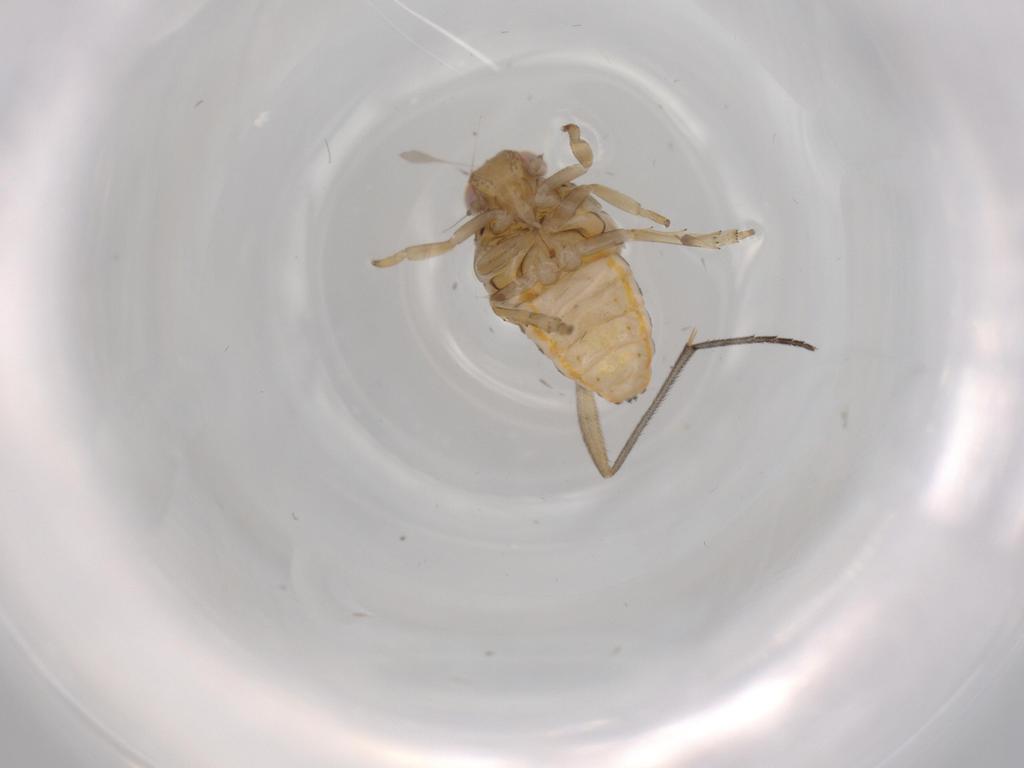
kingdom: Animalia
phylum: Arthropoda
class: Insecta
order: Hemiptera
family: Issidae
